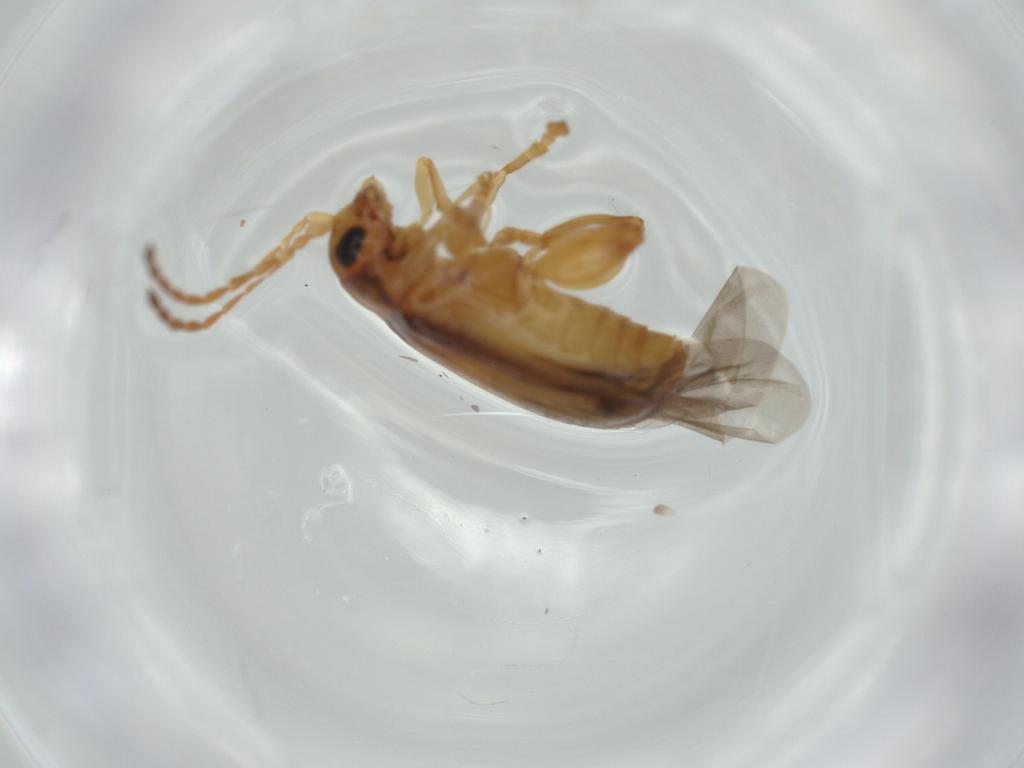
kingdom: Animalia
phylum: Arthropoda
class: Insecta
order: Coleoptera
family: Chrysomelidae
